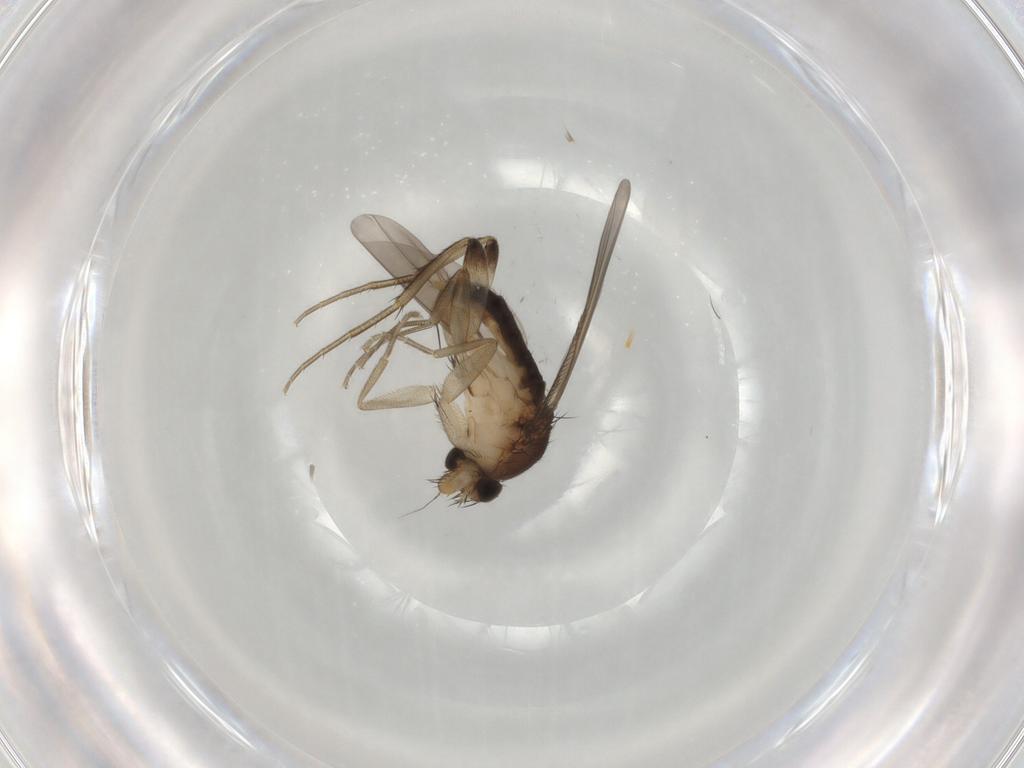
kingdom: Animalia
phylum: Arthropoda
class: Insecta
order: Diptera
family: Phoridae
